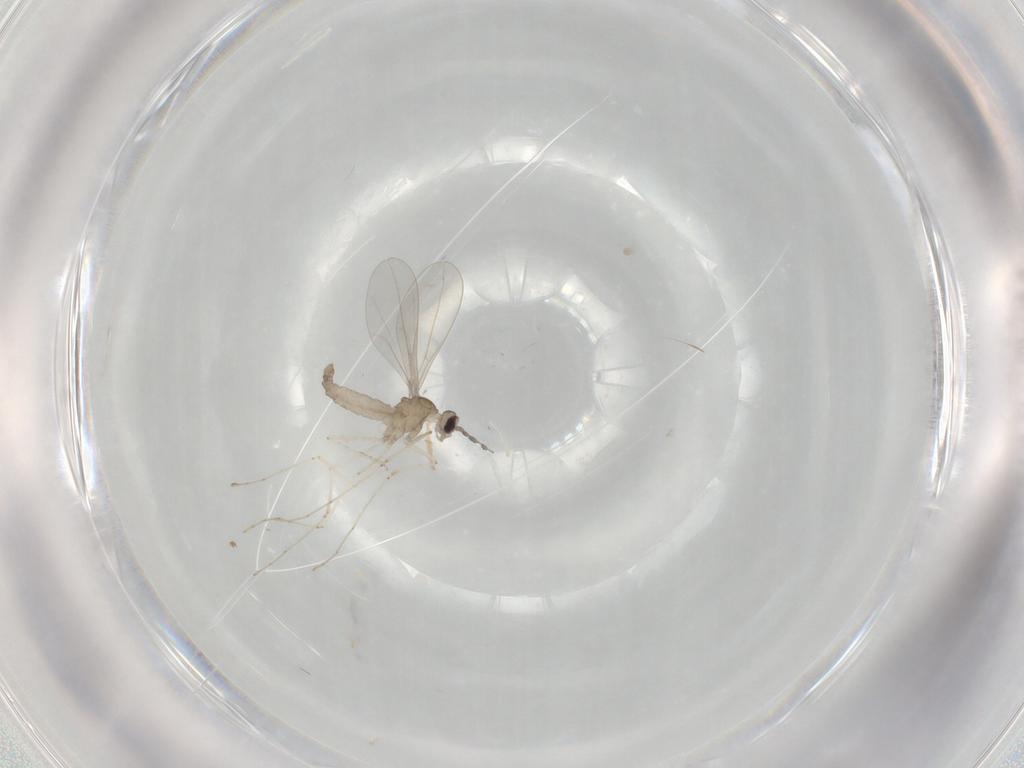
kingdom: Animalia
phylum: Arthropoda
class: Insecta
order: Diptera
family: Cecidomyiidae
